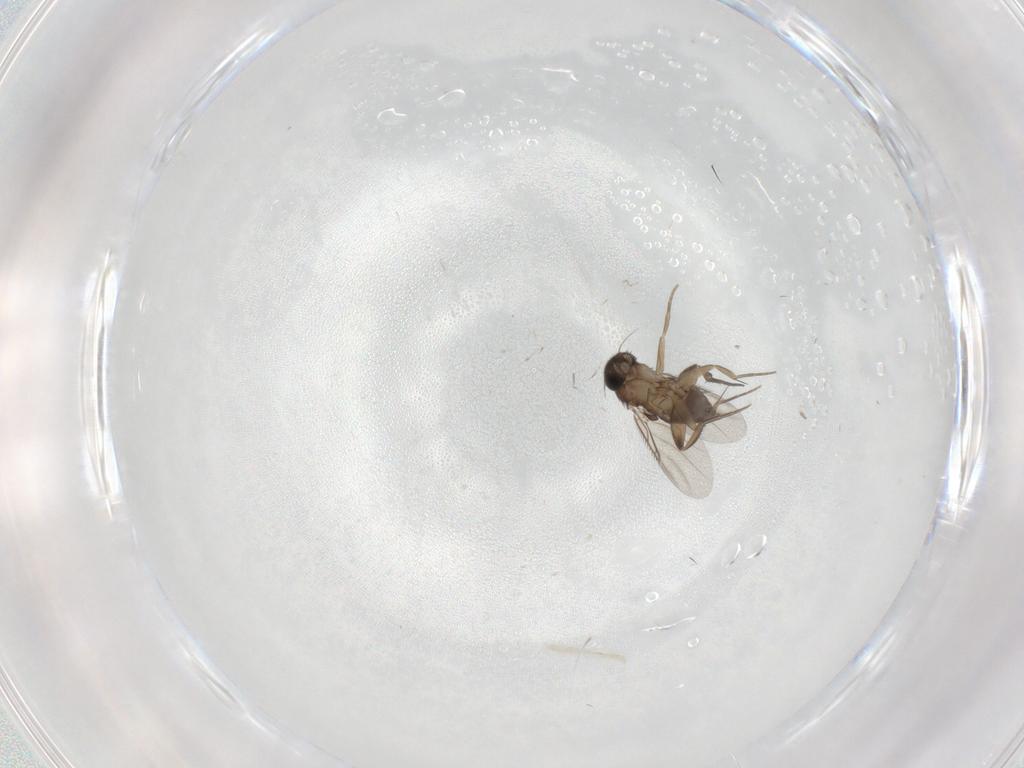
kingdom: Animalia
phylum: Arthropoda
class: Insecta
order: Diptera
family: Phoridae
